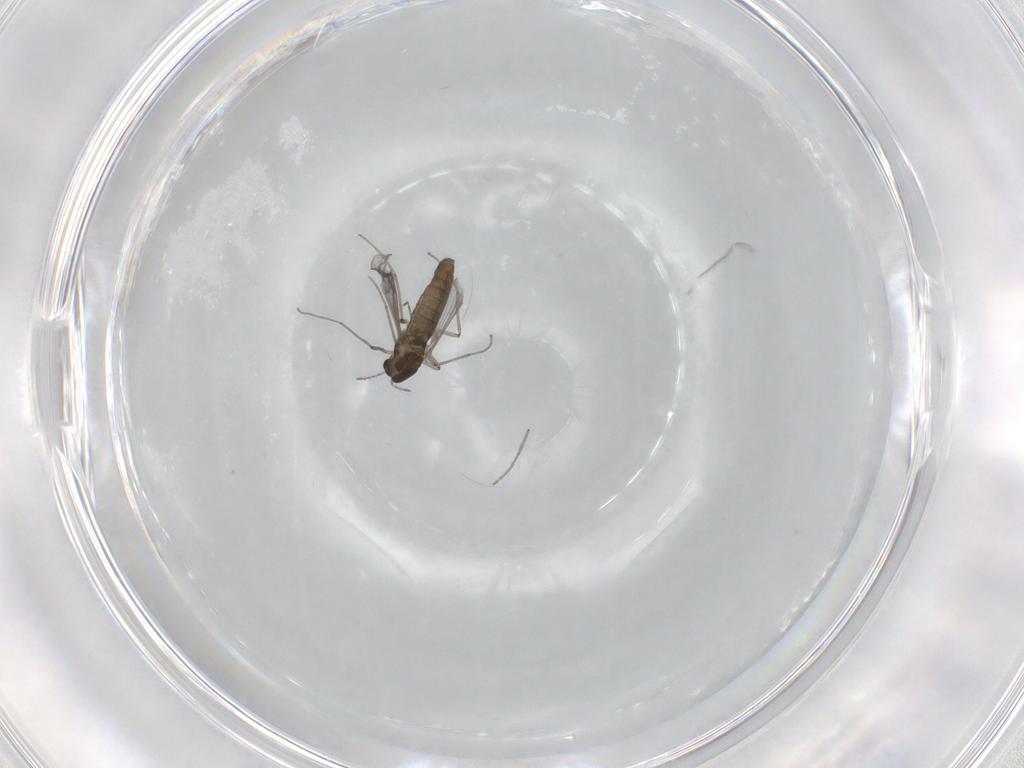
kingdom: Animalia
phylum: Arthropoda
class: Insecta
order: Diptera
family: Chironomidae
